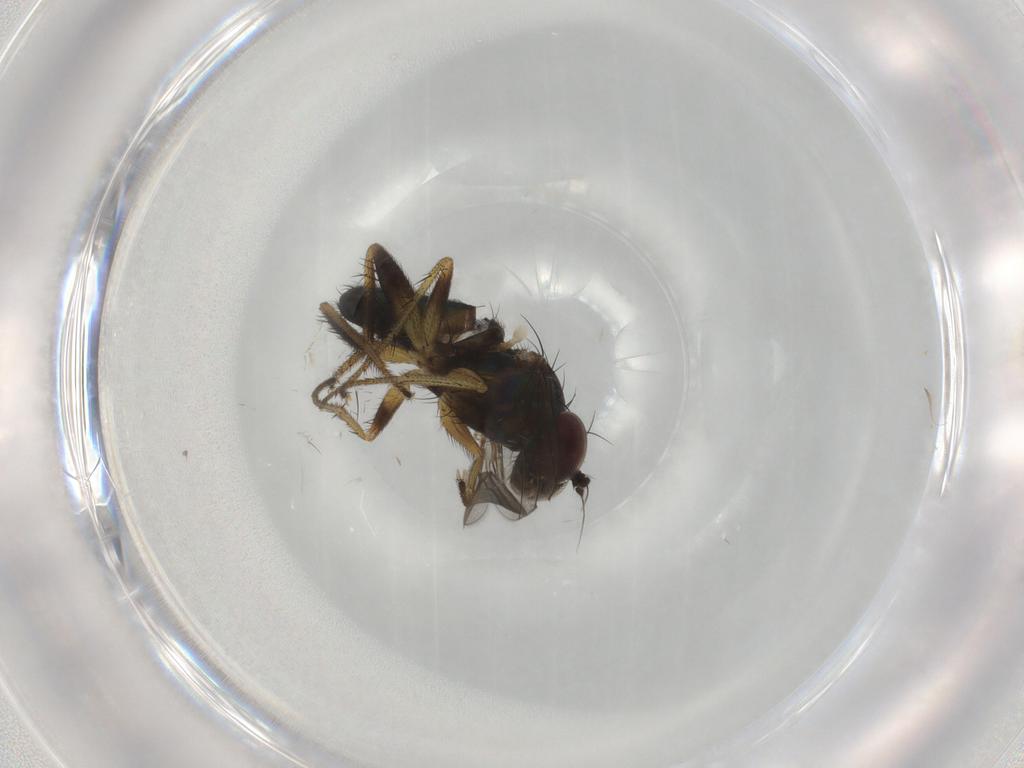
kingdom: Animalia
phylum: Arthropoda
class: Insecta
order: Diptera
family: Dolichopodidae
